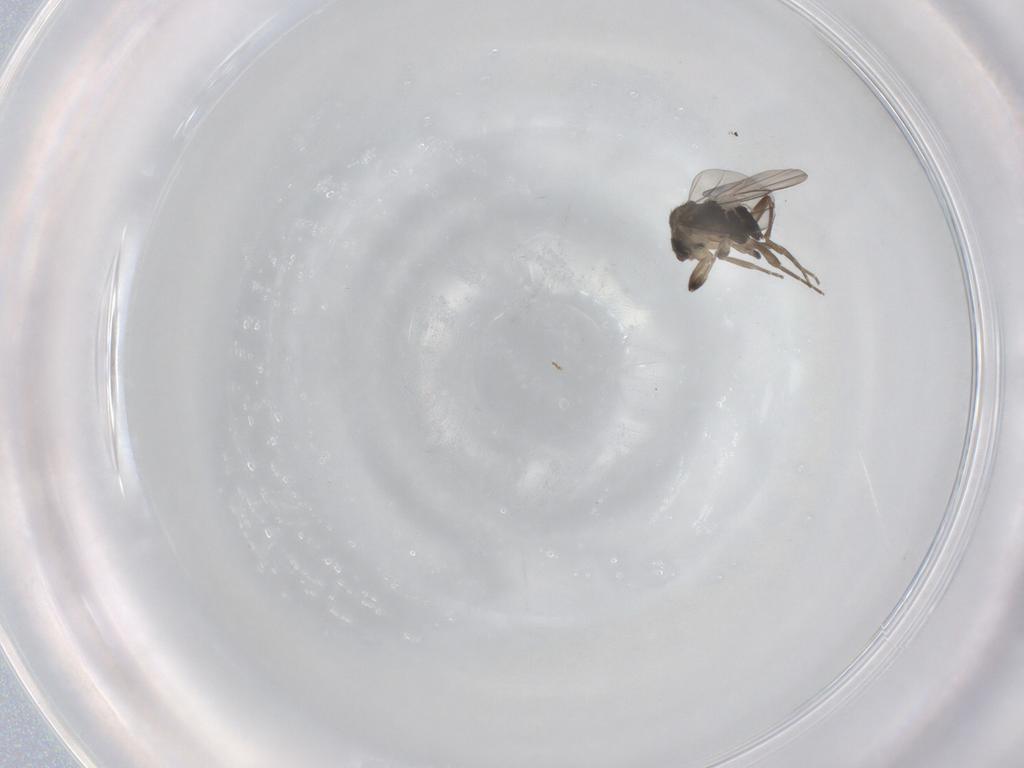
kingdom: Animalia
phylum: Arthropoda
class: Insecta
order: Diptera
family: Phoridae
